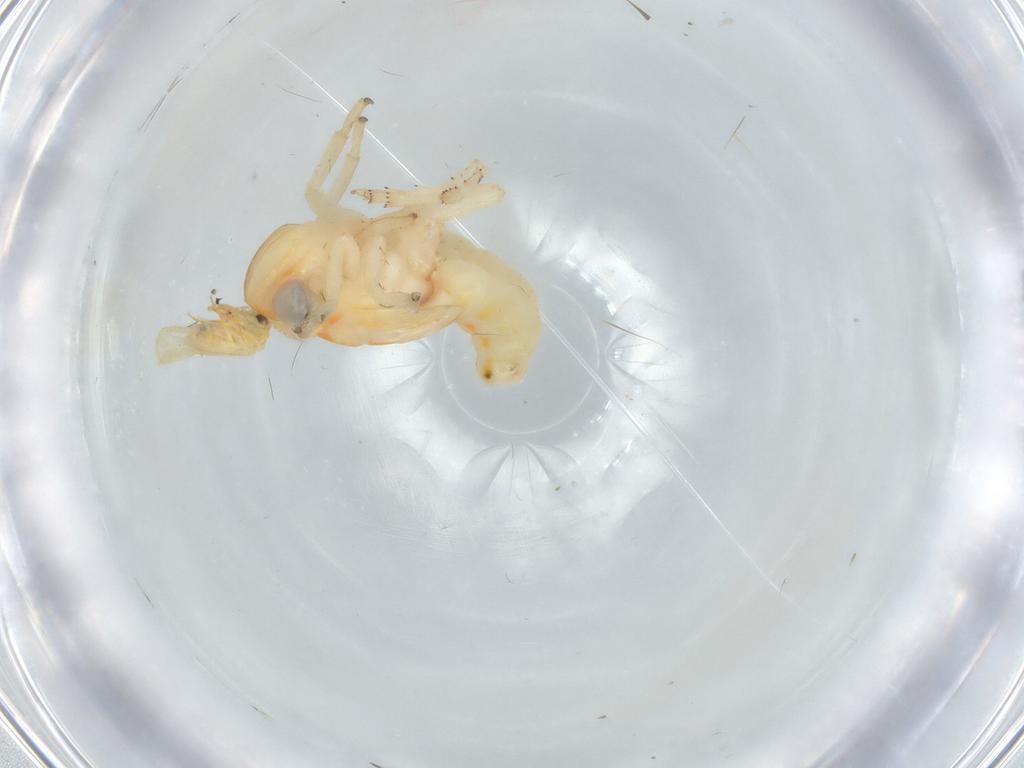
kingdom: Animalia
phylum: Arthropoda
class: Insecta
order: Hemiptera
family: Nogodinidae
